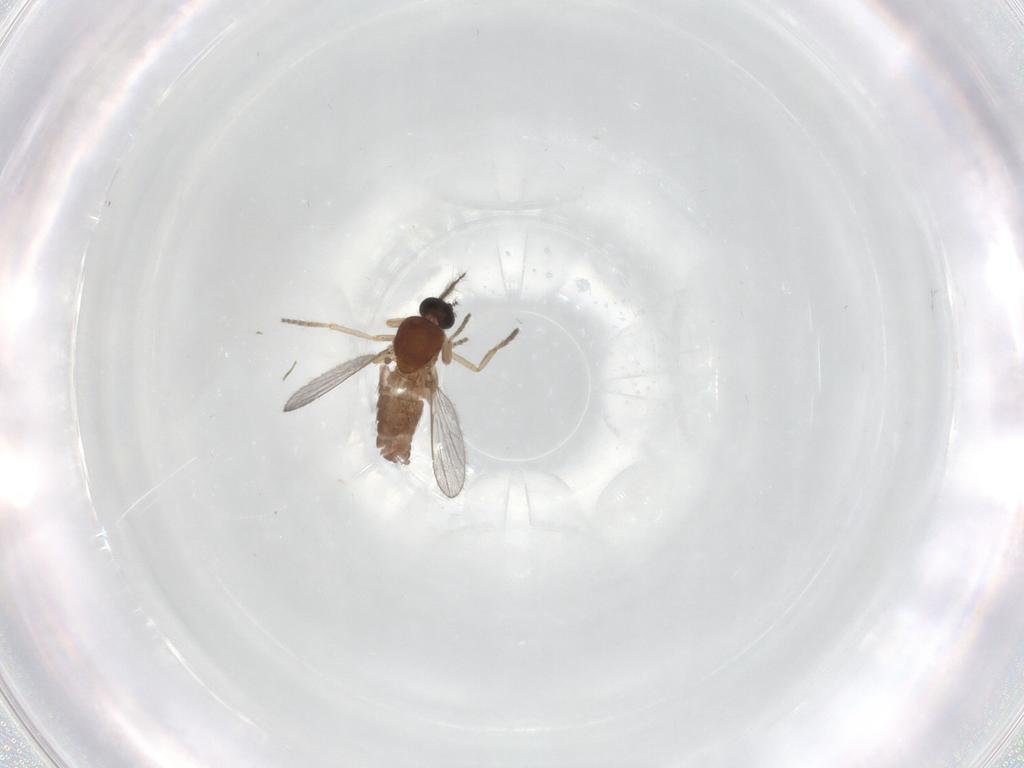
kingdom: Animalia
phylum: Arthropoda
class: Insecta
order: Diptera
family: Ceratopogonidae
